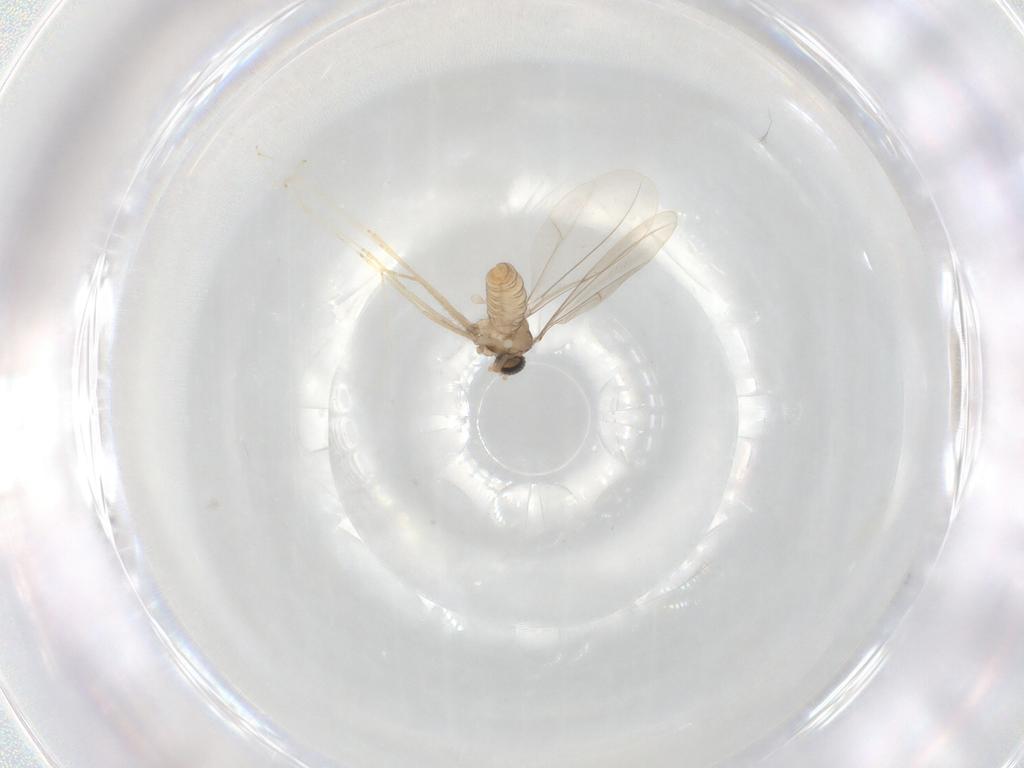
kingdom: Animalia
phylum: Arthropoda
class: Insecta
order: Diptera
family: Cecidomyiidae
